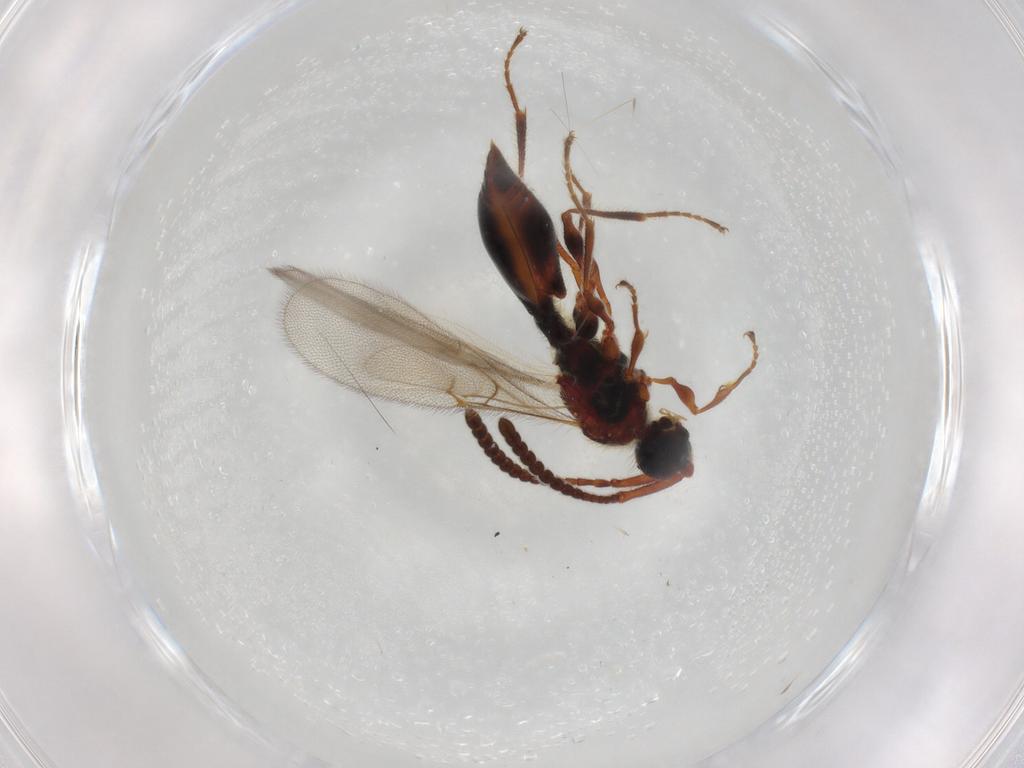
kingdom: Animalia
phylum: Arthropoda
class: Insecta
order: Hymenoptera
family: Diapriidae
